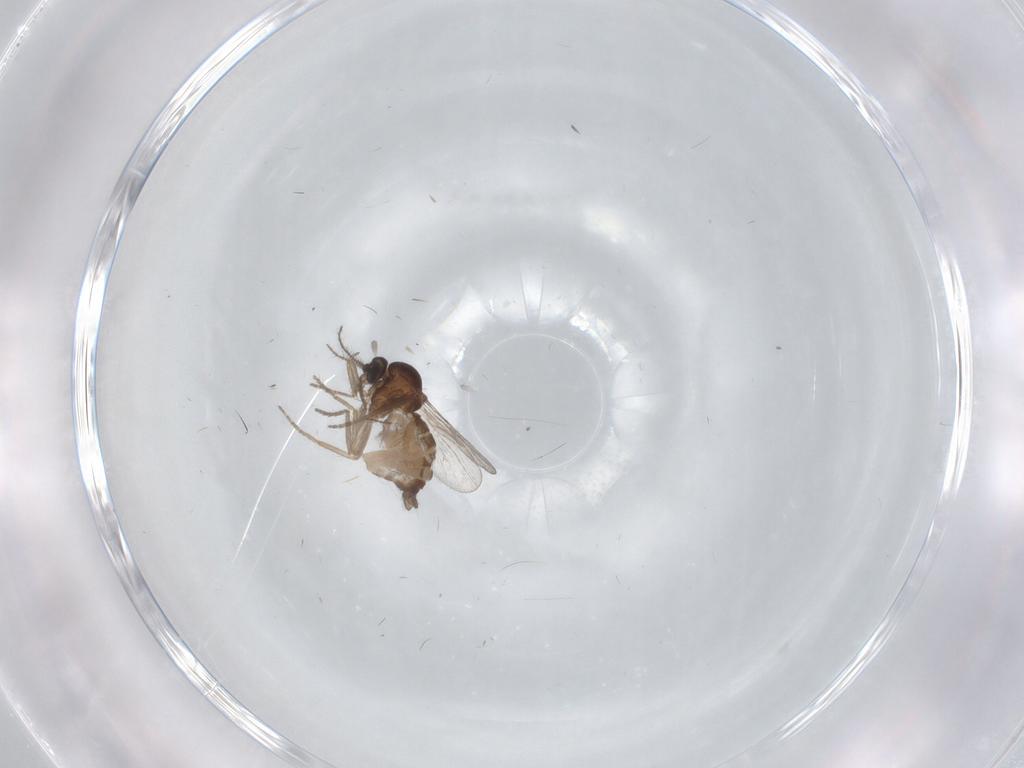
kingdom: Animalia
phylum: Arthropoda
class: Insecta
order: Diptera
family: Ceratopogonidae
